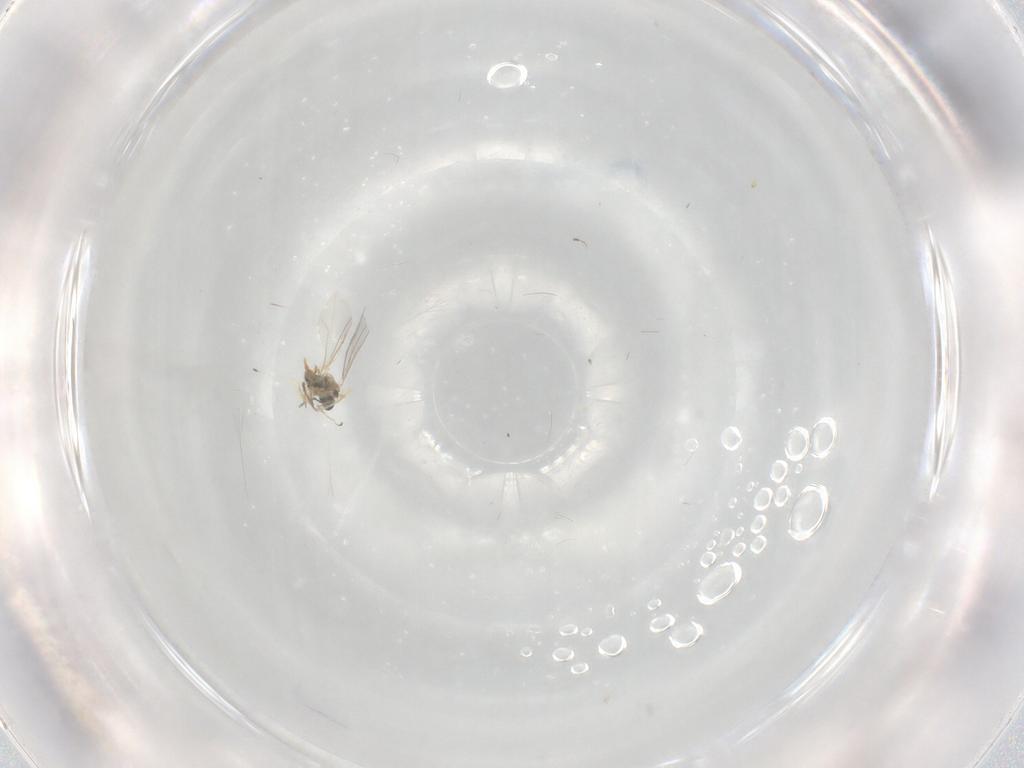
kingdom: Animalia
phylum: Arthropoda
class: Insecta
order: Diptera
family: Cecidomyiidae
